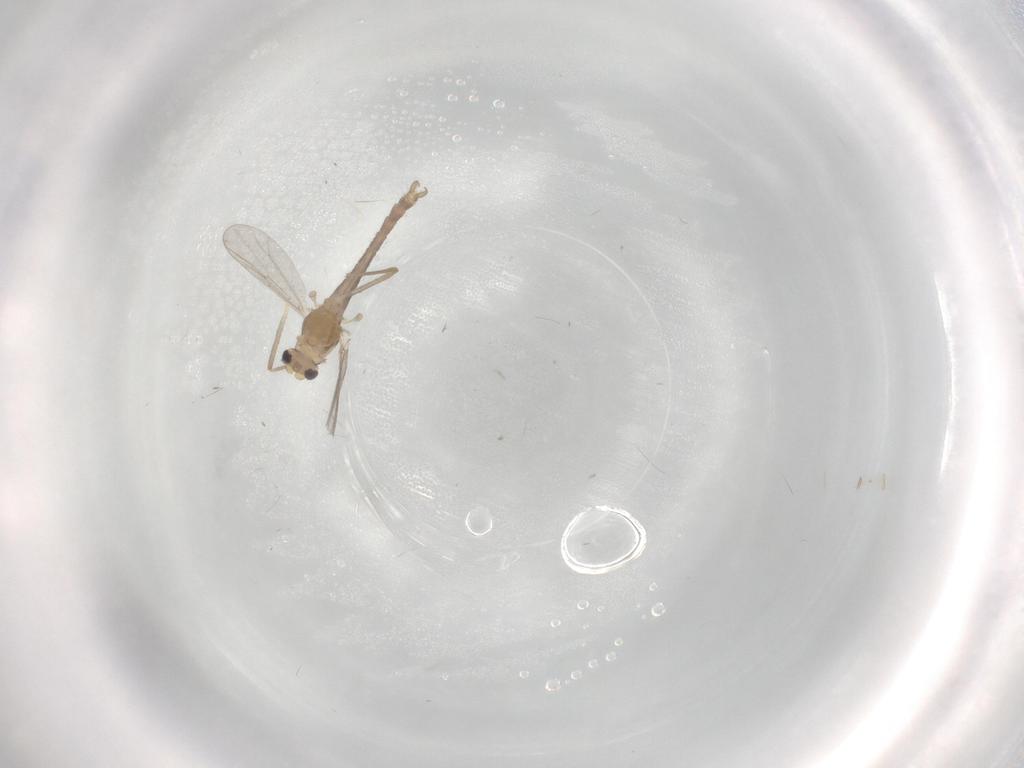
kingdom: Animalia
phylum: Arthropoda
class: Insecta
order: Diptera
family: Chironomidae
